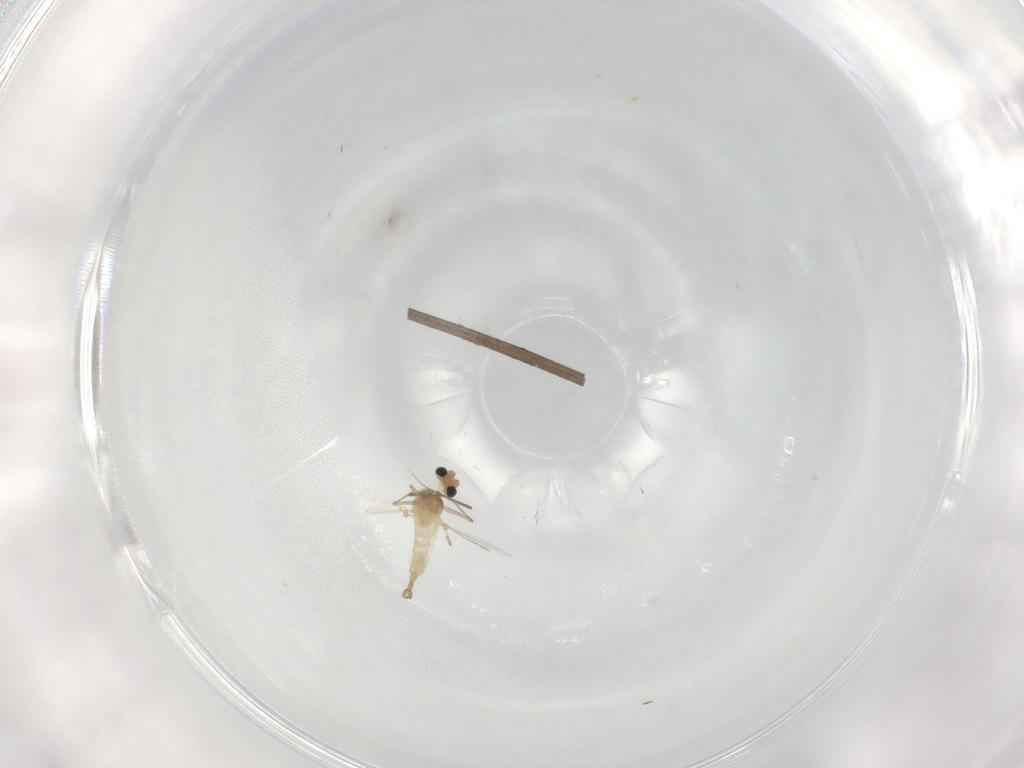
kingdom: Animalia
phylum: Arthropoda
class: Insecta
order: Diptera
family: Chironomidae
